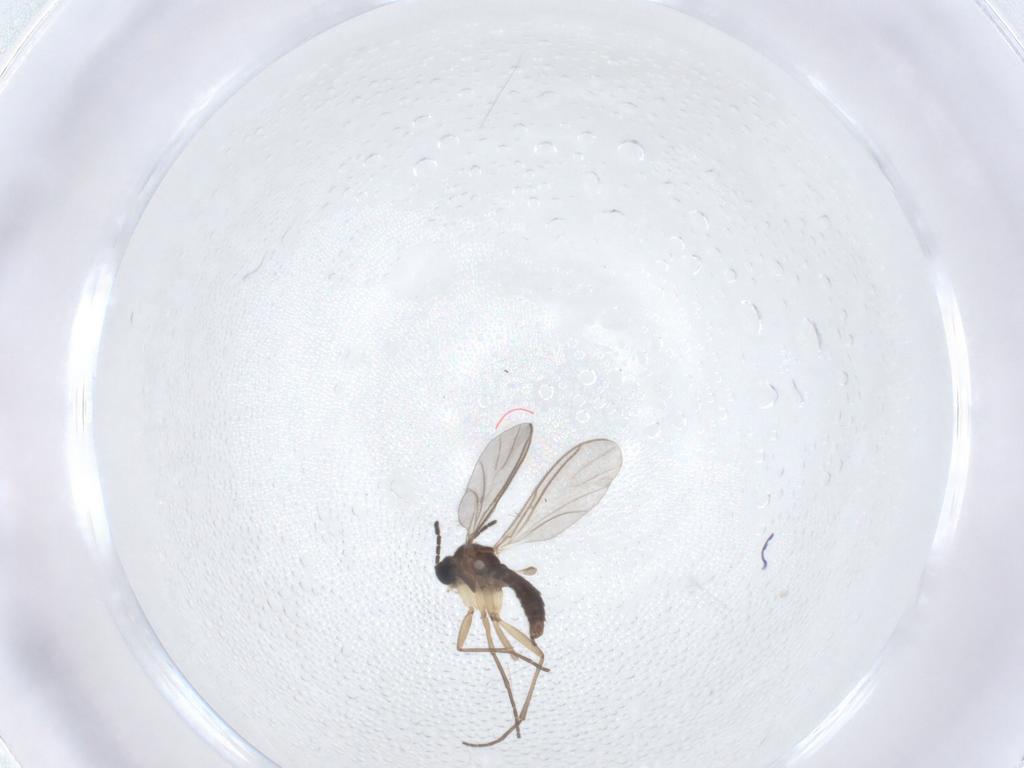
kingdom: Animalia
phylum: Arthropoda
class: Insecta
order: Diptera
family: Sciaridae
